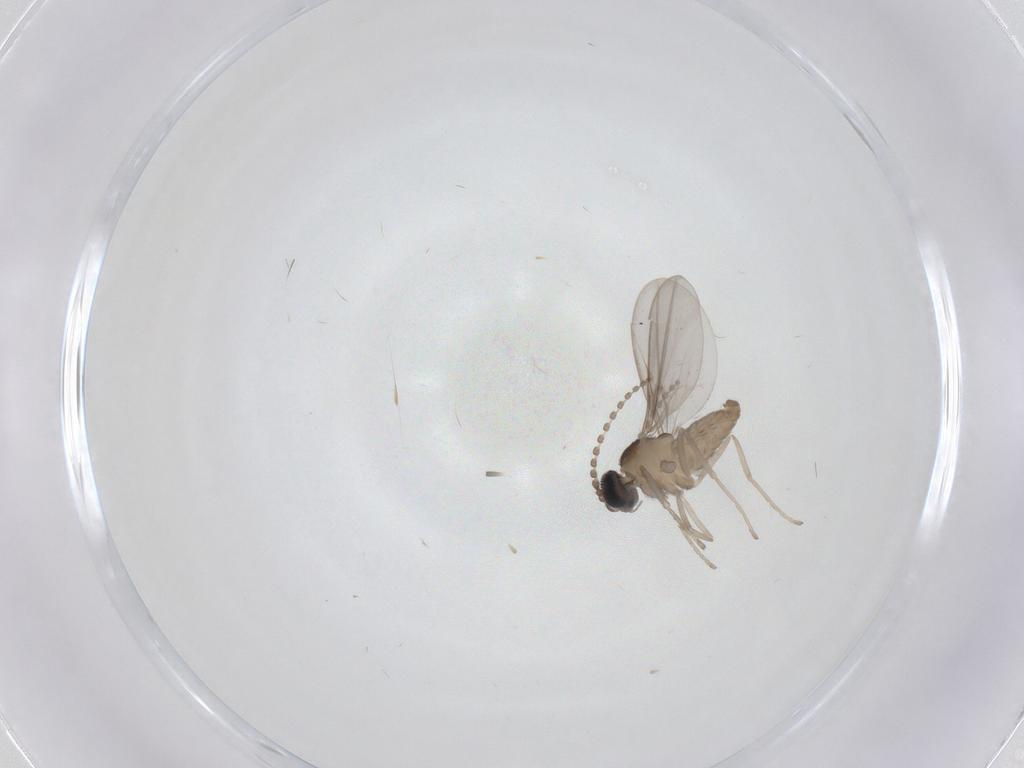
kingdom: Animalia
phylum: Arthropoda
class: Insecta
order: Diptera
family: Cecidomyiidae
